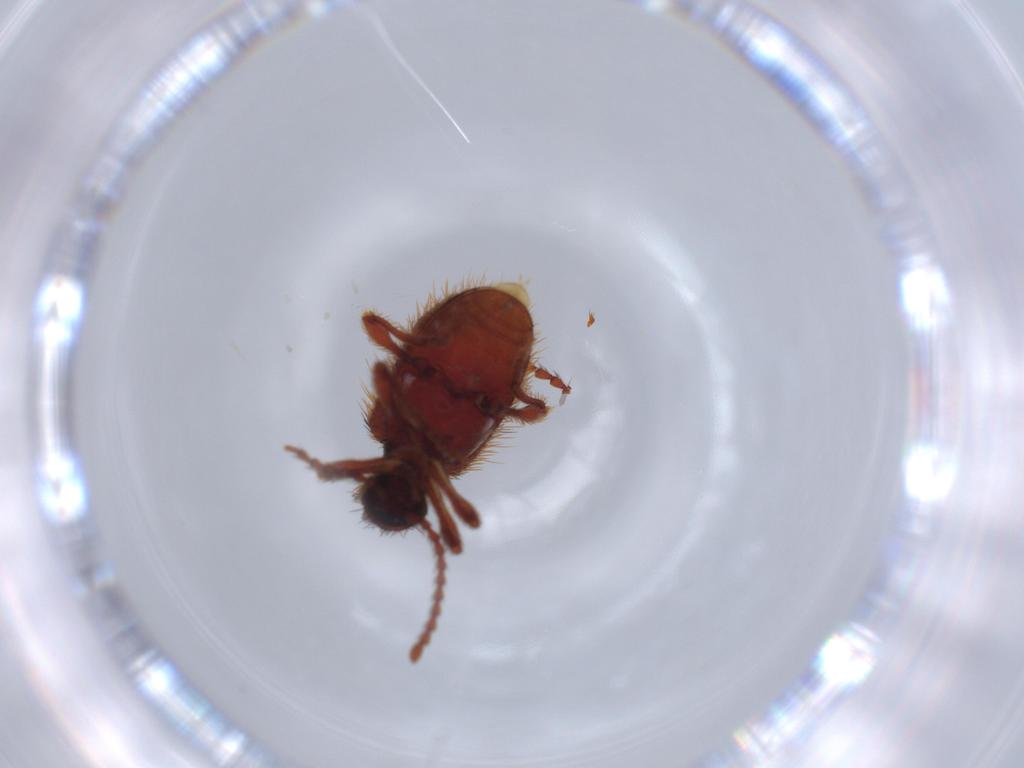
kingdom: Animalia
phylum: Arthropoda
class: Insecta
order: Coleoptera
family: Ptinidae
